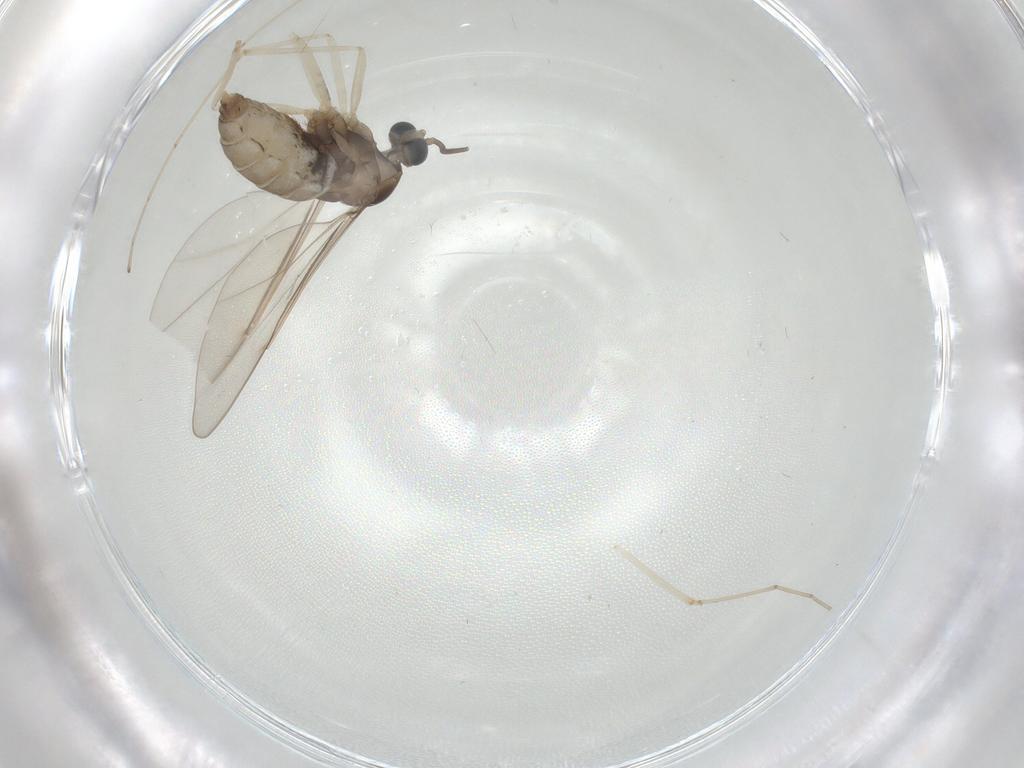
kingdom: Animalia
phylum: Arthropoda
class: Insecta
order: Diptera
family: Cecidomyiidae
